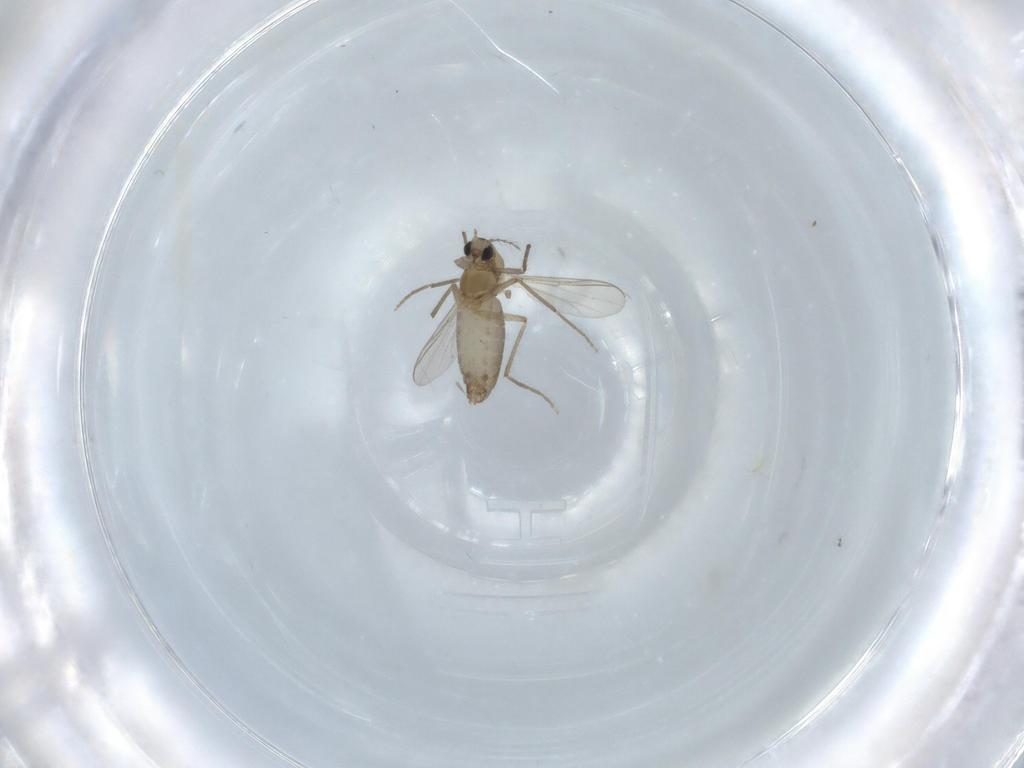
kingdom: Animalia
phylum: Arthropoda
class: Insecta
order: Diptera
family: Chironomidae
